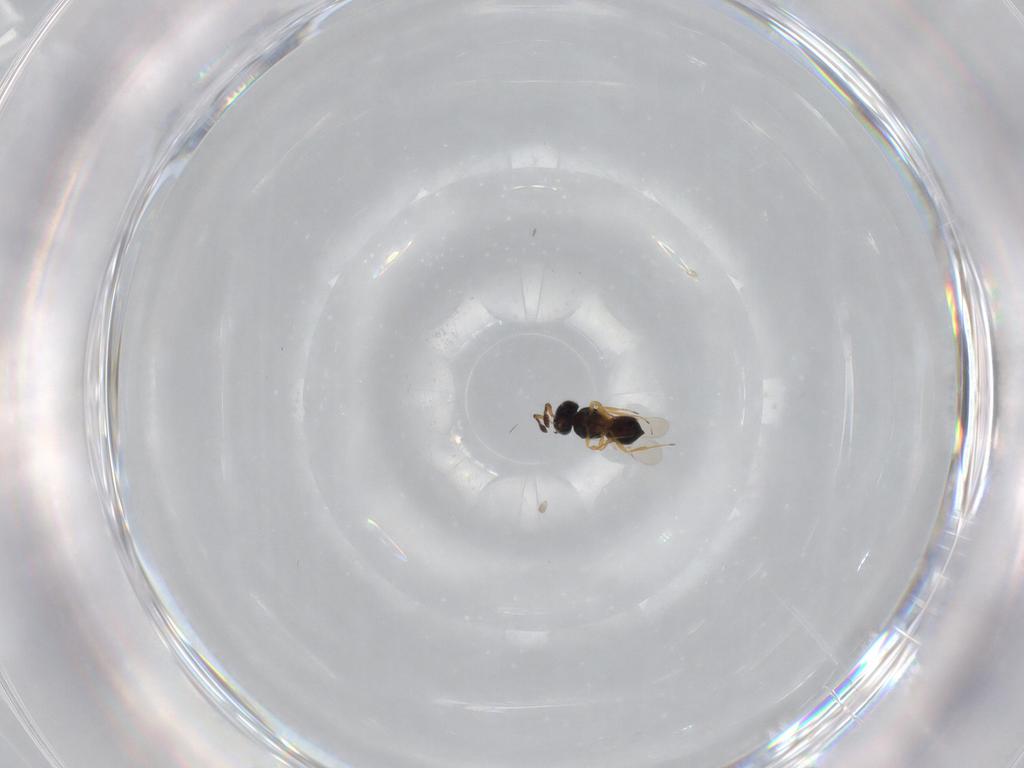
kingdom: Animalia
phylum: Arthropoda
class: Insecta
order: Hymenoptera
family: Scelionidae
